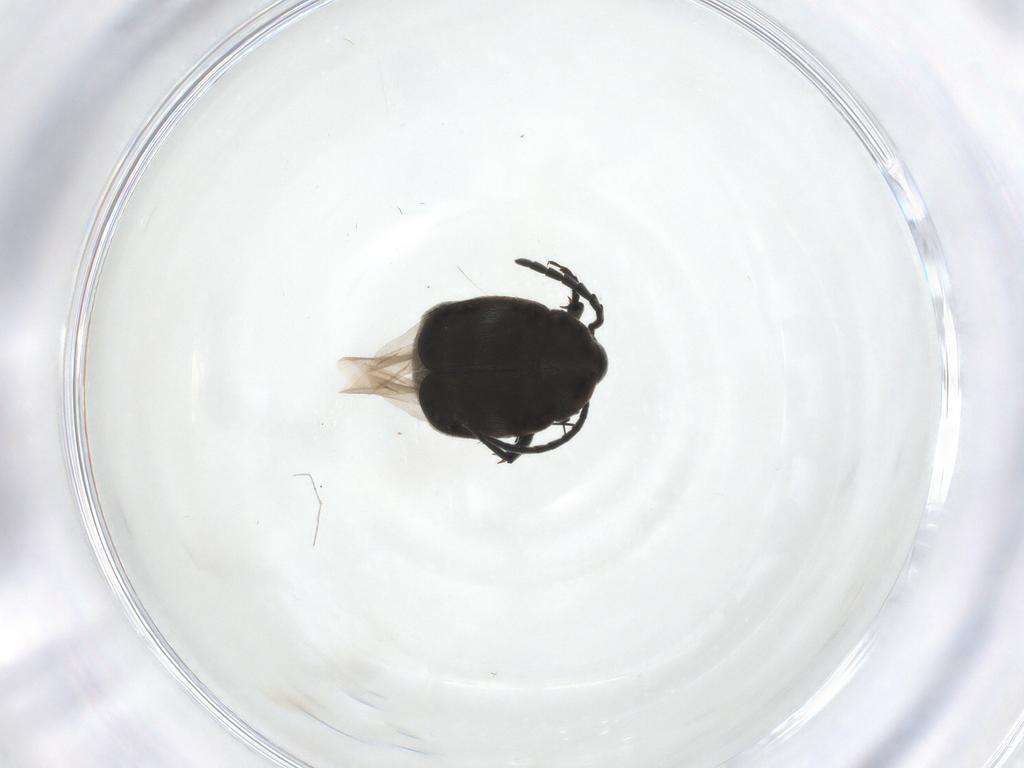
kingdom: Animalia
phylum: Arthropoda
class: Insecta
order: Coleoptera
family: Chrysomelidae
